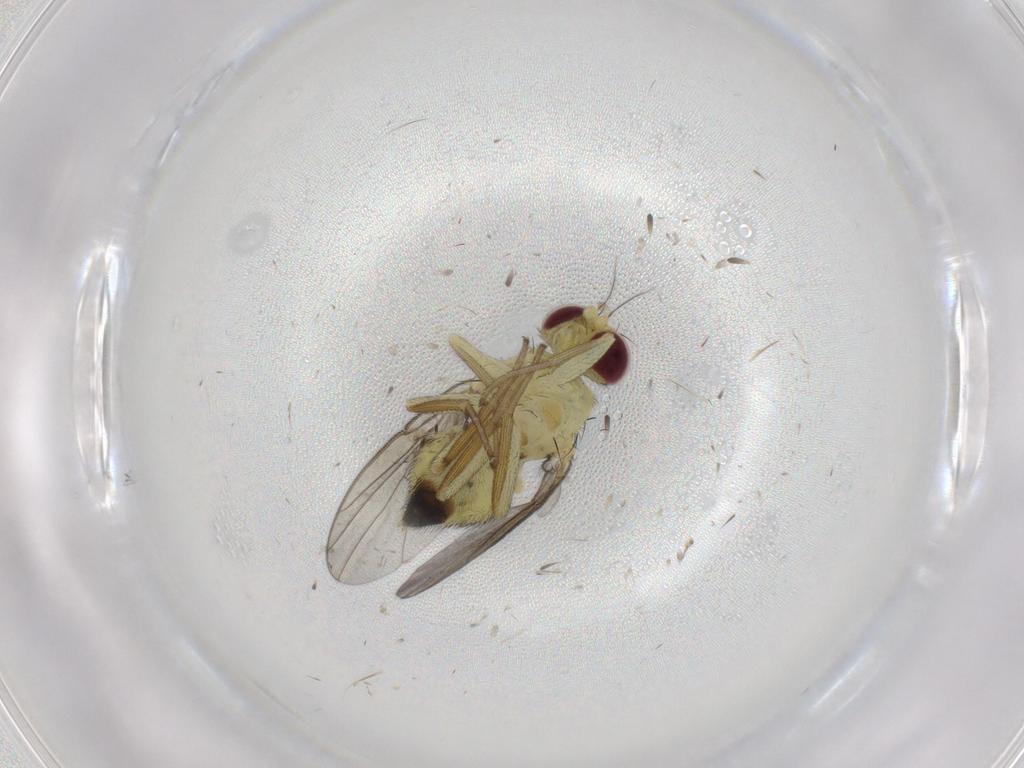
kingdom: Animalia
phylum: Arthropoda
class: Insecta
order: Diptera
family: Agromyzidae
